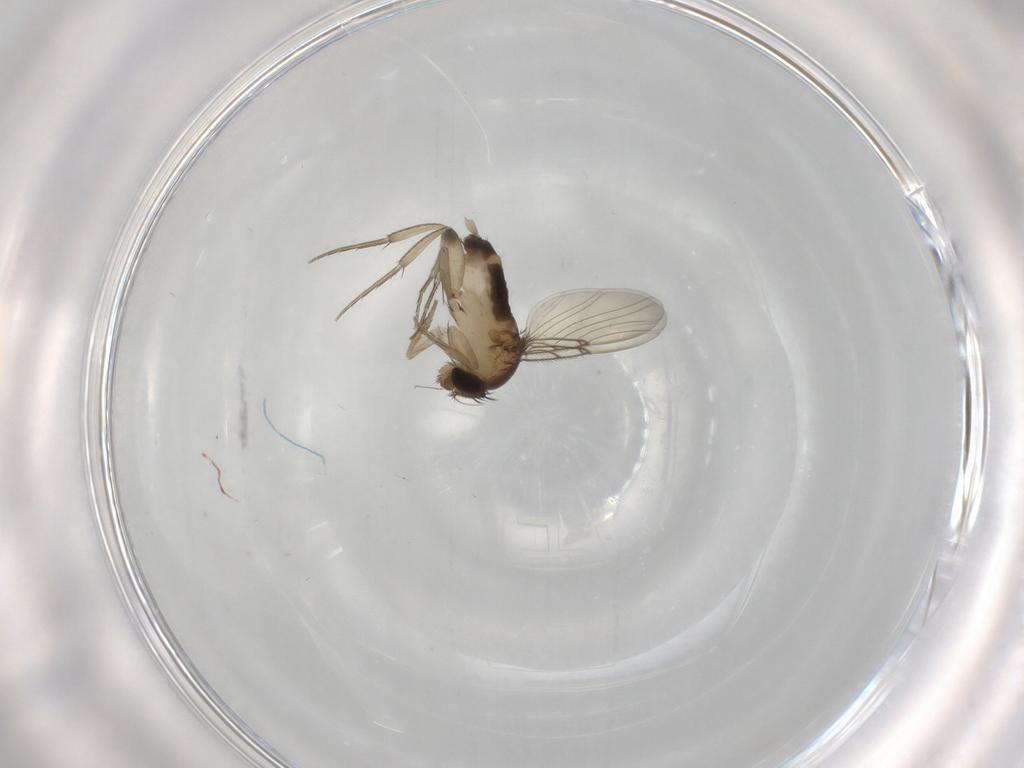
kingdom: Animalia
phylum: Arthropoda
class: Insecta
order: Diptera
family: Phoridae
